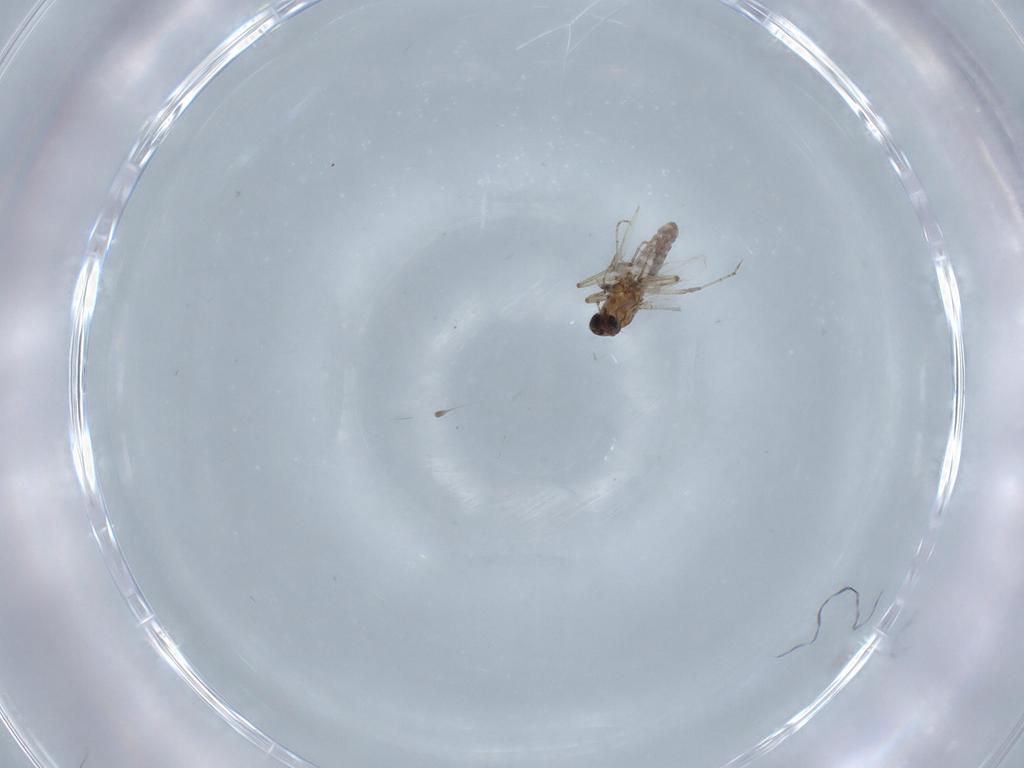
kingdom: Animalia
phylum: Arthropoda
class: Insecta
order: Diptera
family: Ceratopogonidae
